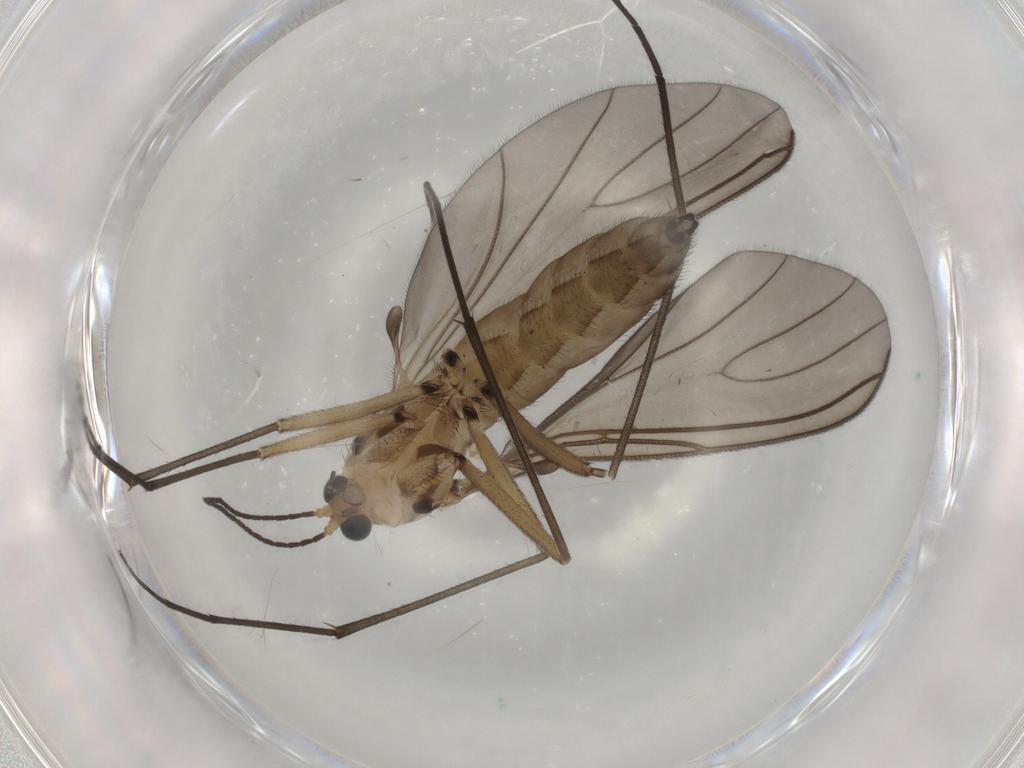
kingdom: Animalia
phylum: Arthropoda
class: Insecta
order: Diptera
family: Sciaridae
